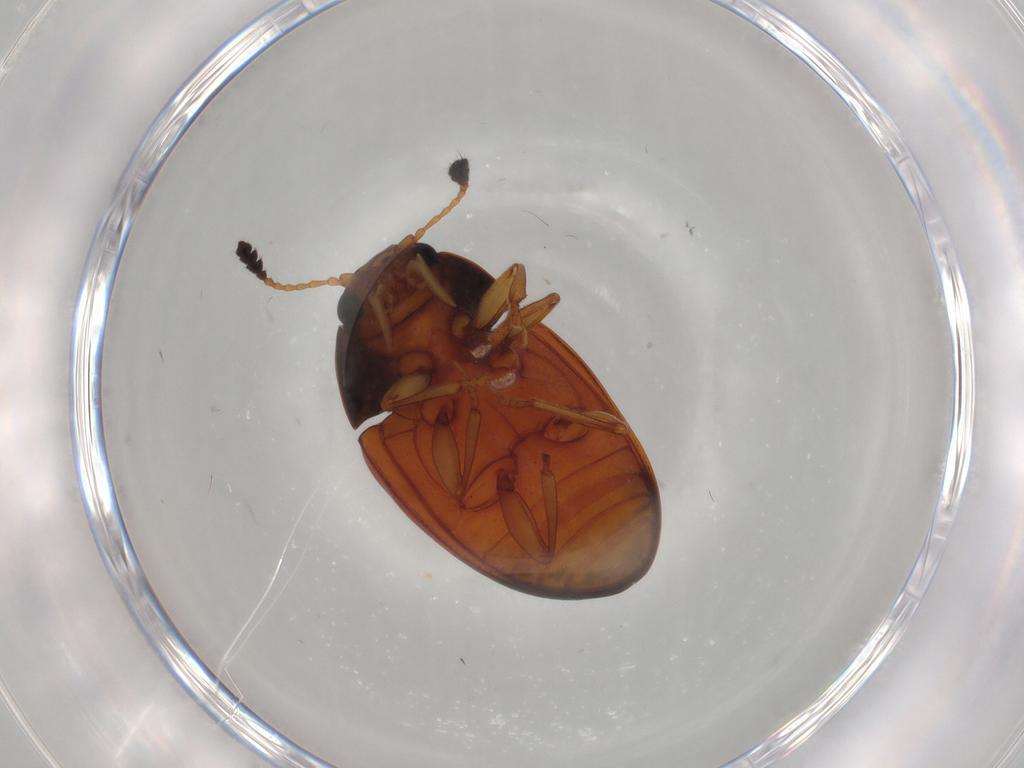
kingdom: Animalia
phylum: Arthropoda
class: Insecta
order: Coleoptera
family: Erotylidae
